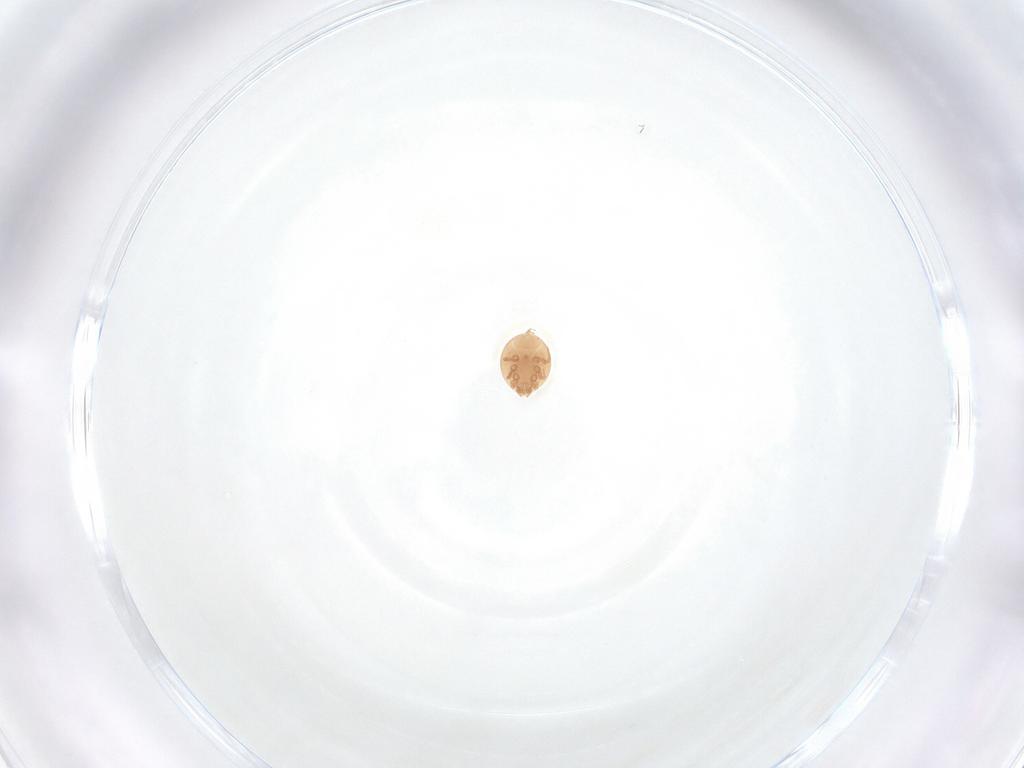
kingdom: Animalia
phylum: Arthropoda
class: Arachnida
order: Mesostigmata
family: Trematuridae
